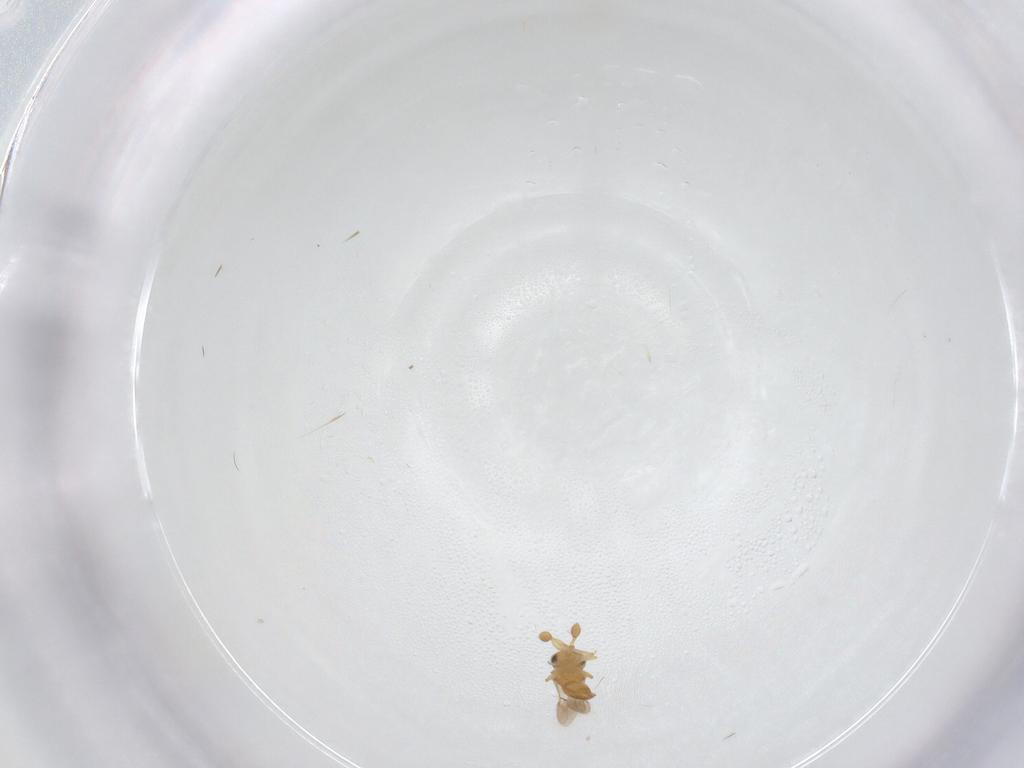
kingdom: Animalia
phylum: Arthropoda
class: Insecta
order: Hymenoptera
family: Scelionidae
